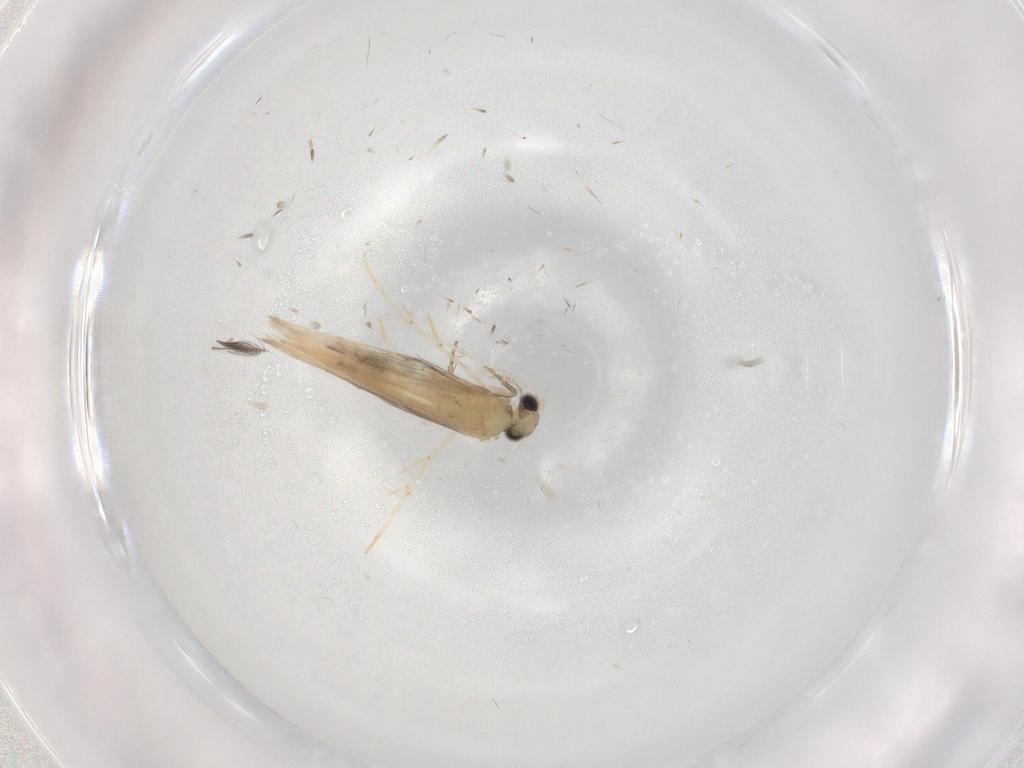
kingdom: Animalia
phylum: Arthropoda
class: Insecta
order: Trichoptera
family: Hydroptilidae
